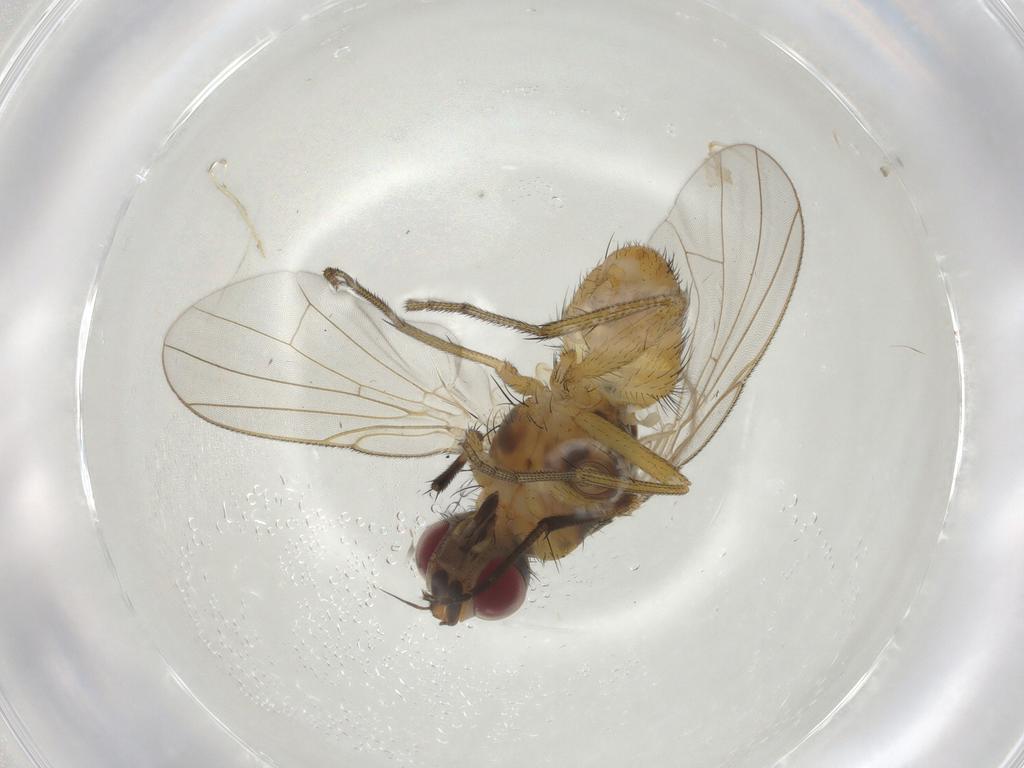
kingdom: Animalia
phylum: Arthropoda
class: Insecta
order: Diptera
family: Muscidae
